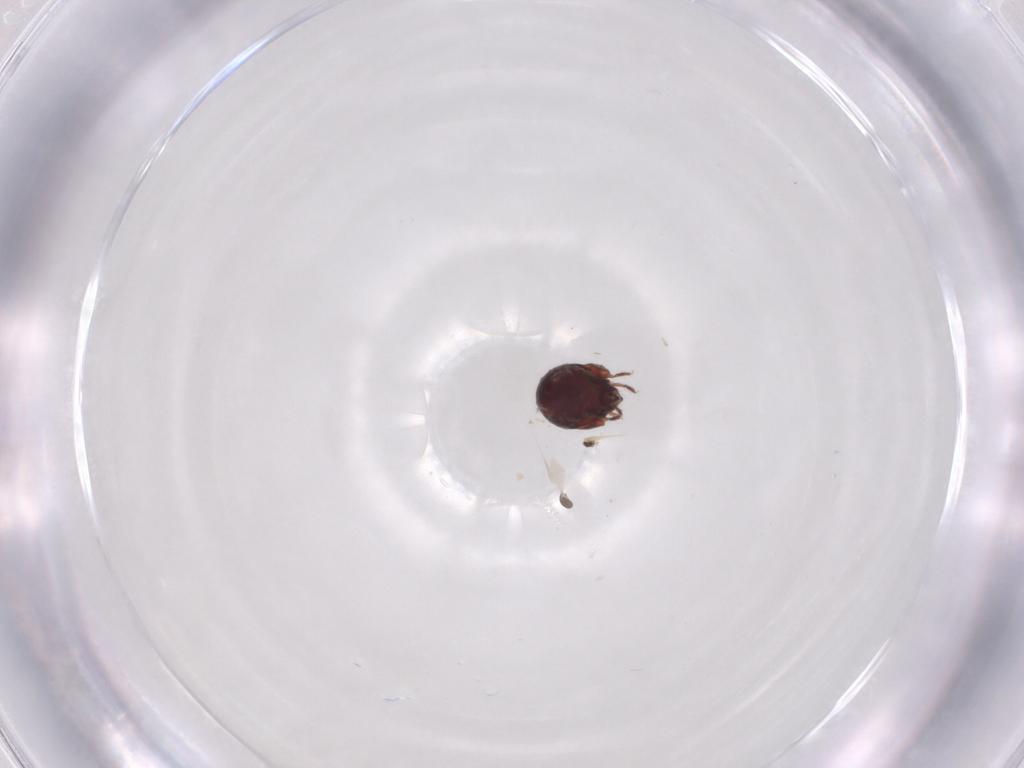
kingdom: Animalia
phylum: Arthropoda
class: Arachnida
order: Sarcoptiformes
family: Humerobatidae
